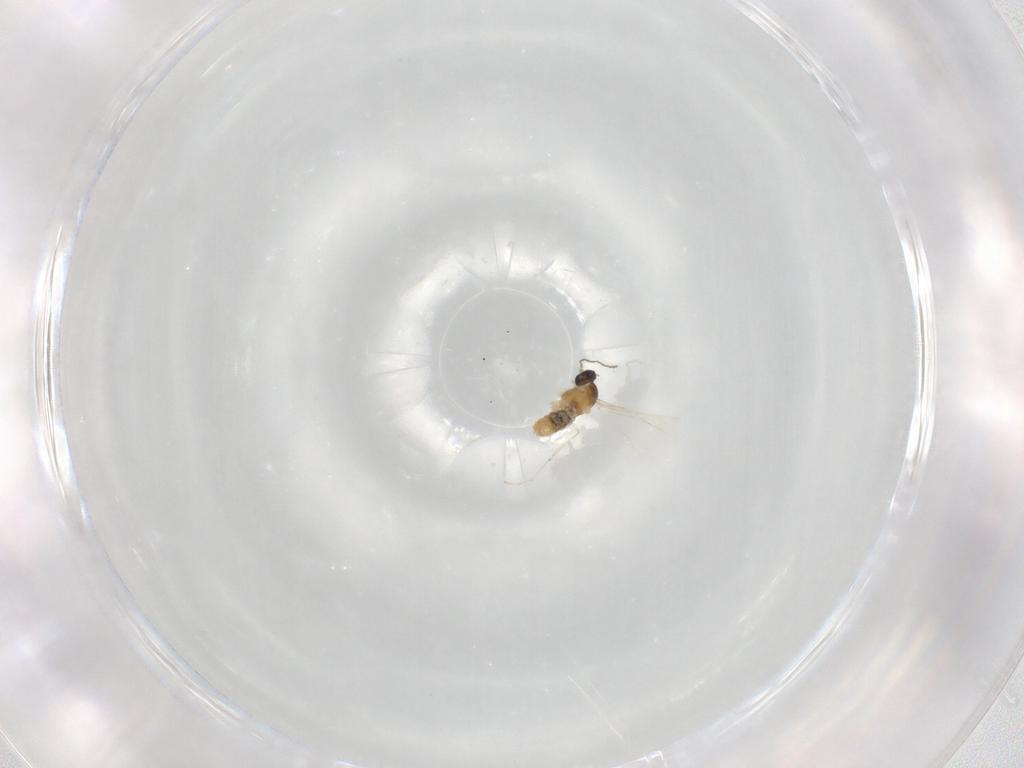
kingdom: Animalia
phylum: Arthropoda
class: Insecta
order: Diptera
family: Cecidomyiidae
